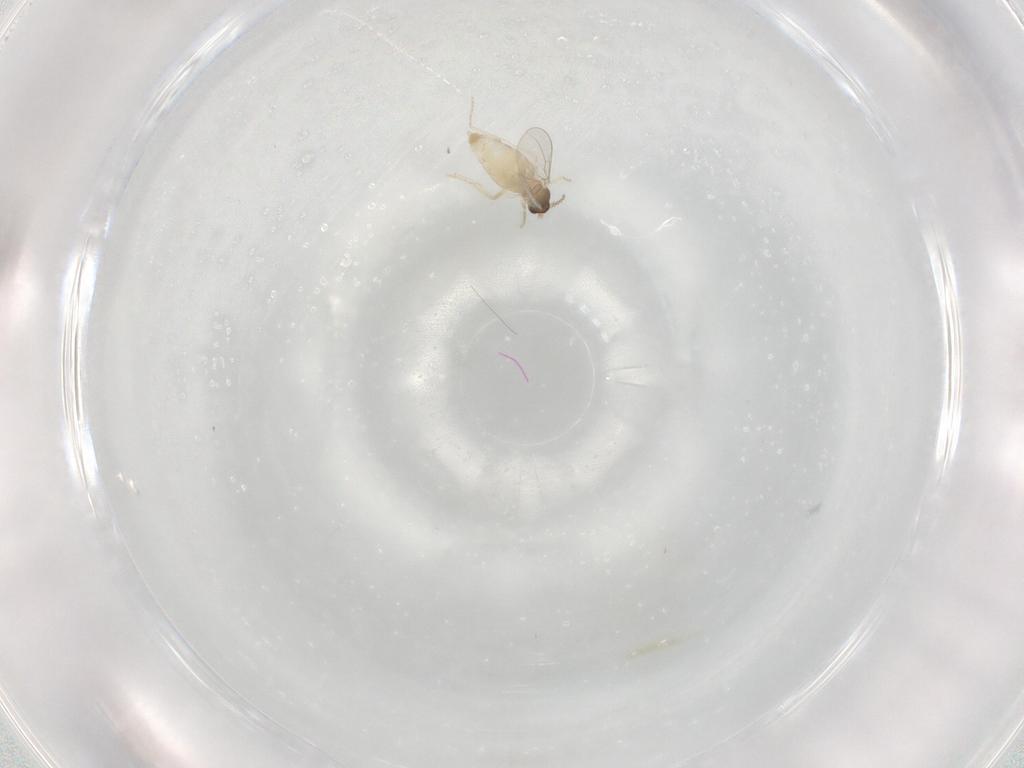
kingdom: Animalia
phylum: Arthropoda
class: Insecta
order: Diptera
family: Cecidomyiidae
